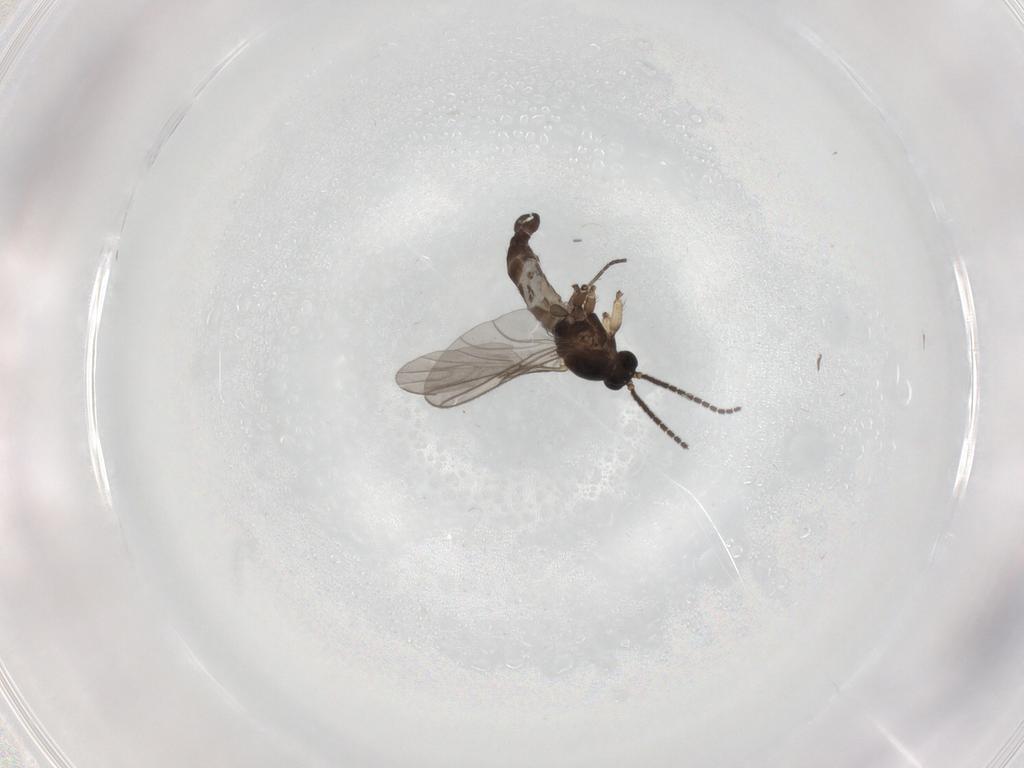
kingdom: Animalia
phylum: Arthropoda
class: Insecta
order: Diptera
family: Sciaridae
